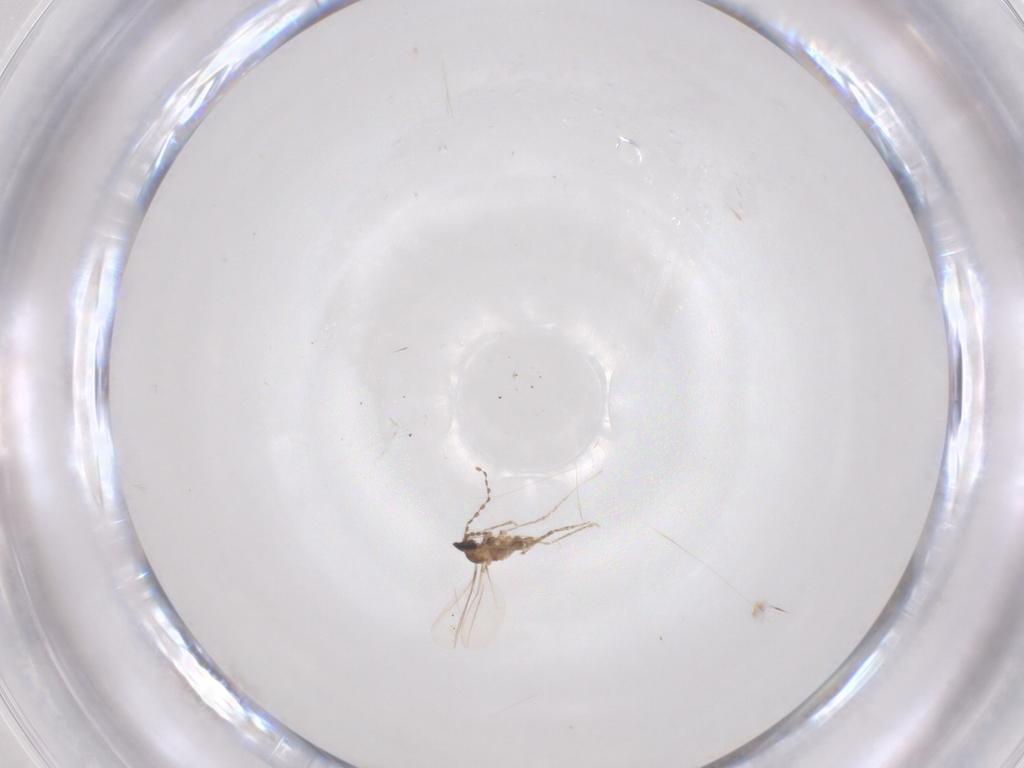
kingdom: Animalia
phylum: Arthropoda
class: Insecta
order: Diptera
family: Cecidomyiidae
